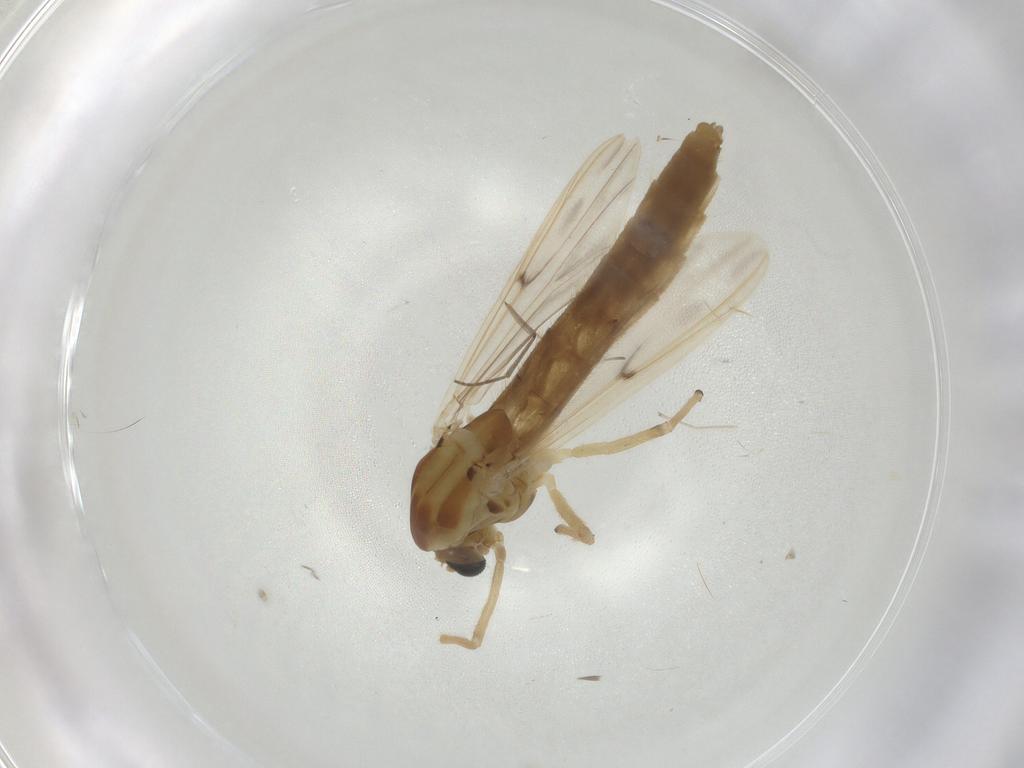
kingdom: Animalia
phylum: Arthropoda
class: Insecta
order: Diptera
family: Chironomidae
